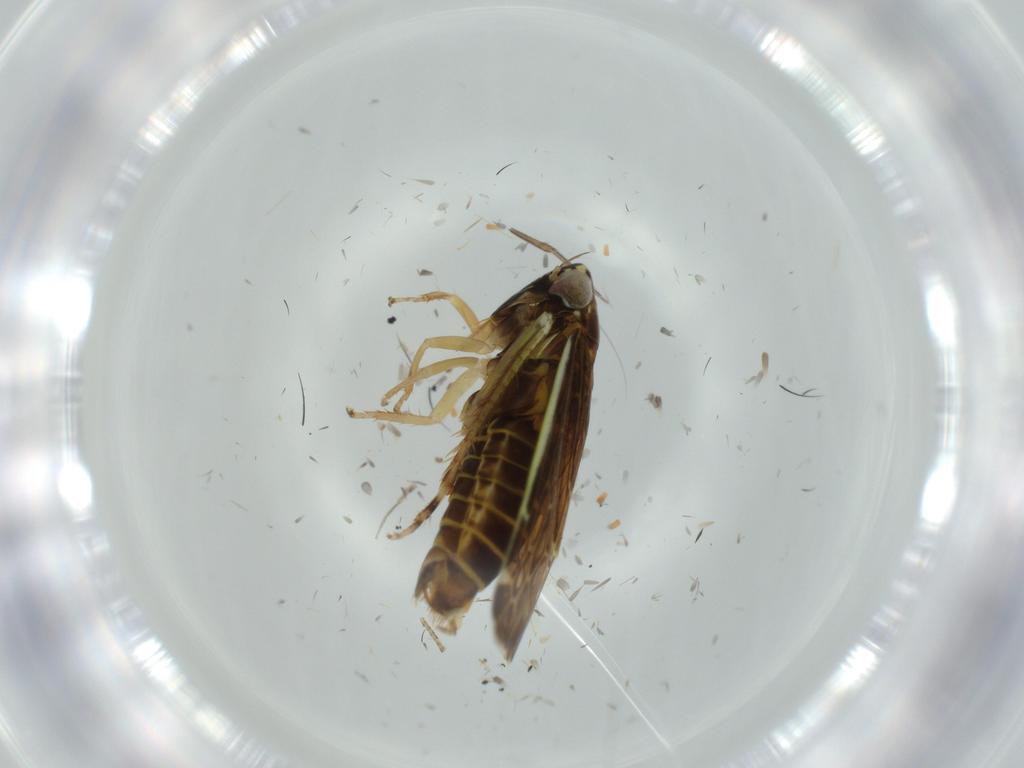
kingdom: Animalia
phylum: Arthropoda
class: Insecta
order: Hemiptera
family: Cicadellidae
